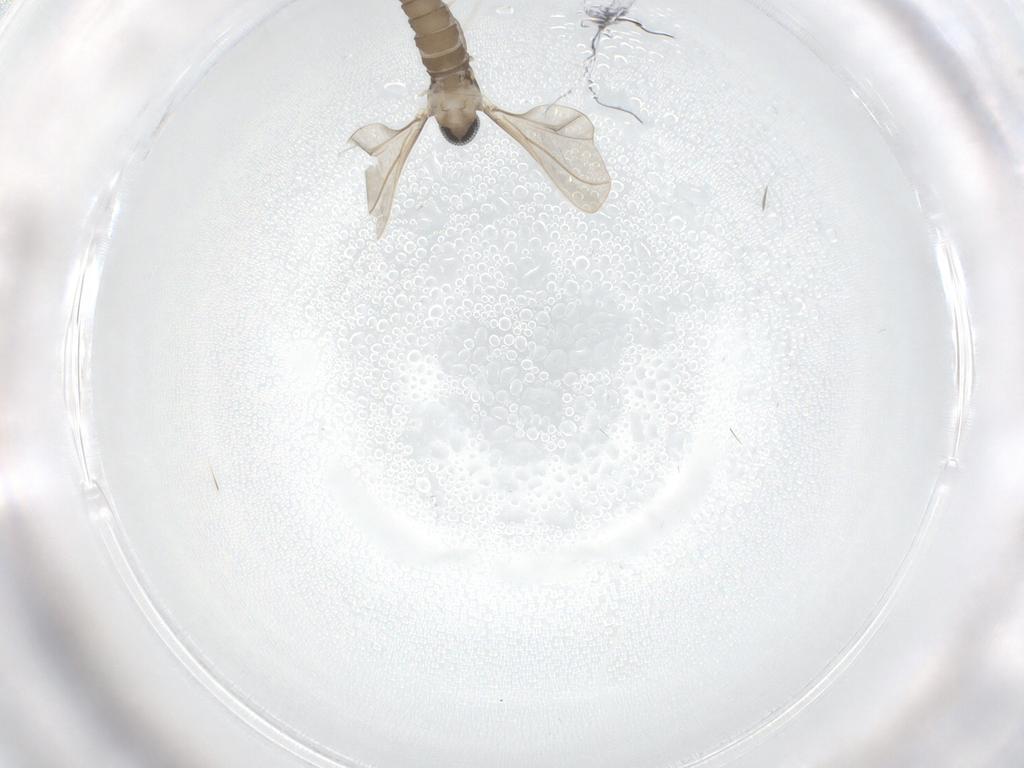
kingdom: Animalia
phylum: Arthropoda
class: Insecta
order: Diptera
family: Cecidomyiidae
